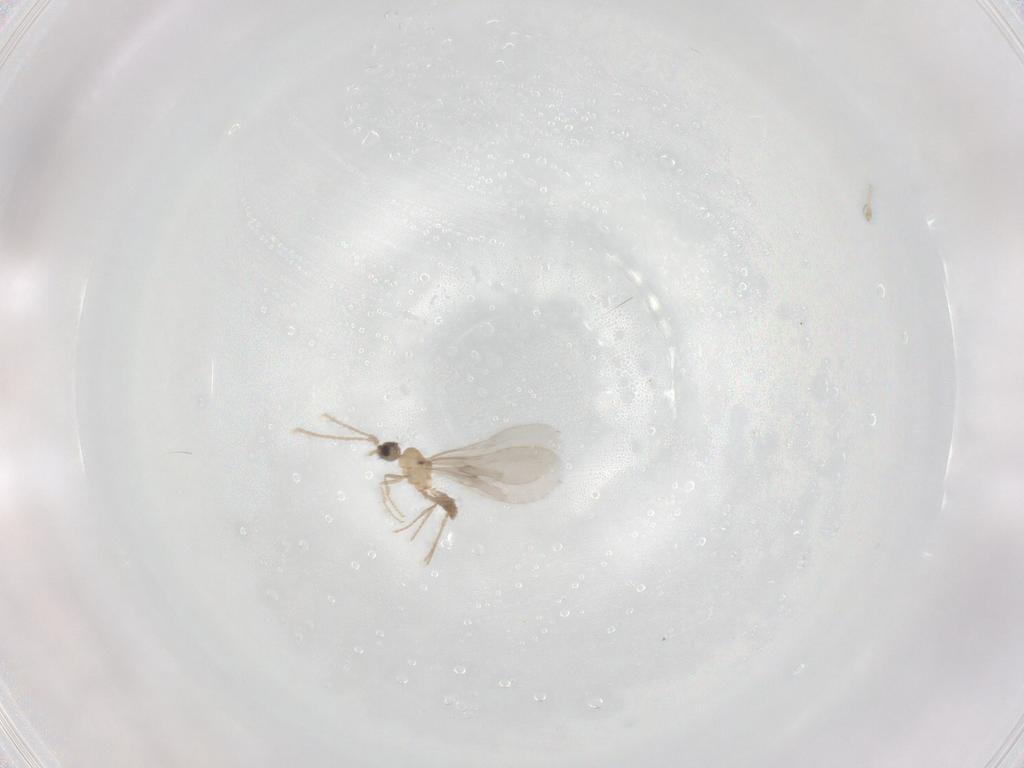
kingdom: Animalia
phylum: Arthropoda
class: Insecta
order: Hymenoptera
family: Formicidae
